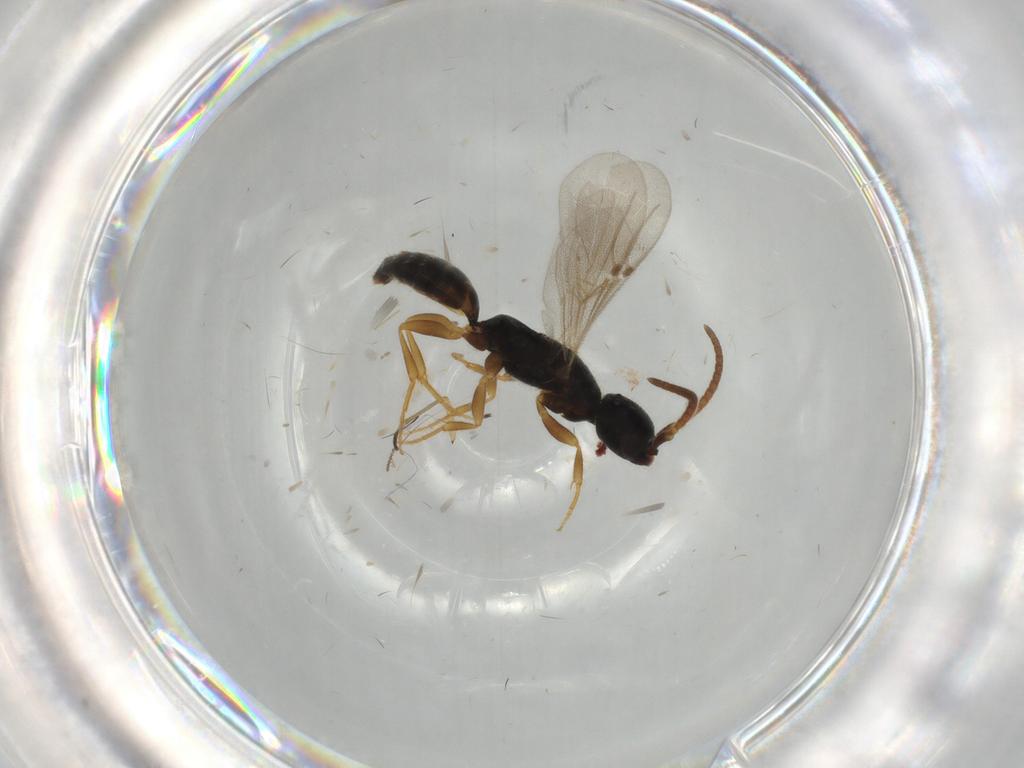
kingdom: Animalia
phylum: Arthropoda
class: Insecta
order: Hymenoptera
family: Bethylidae
